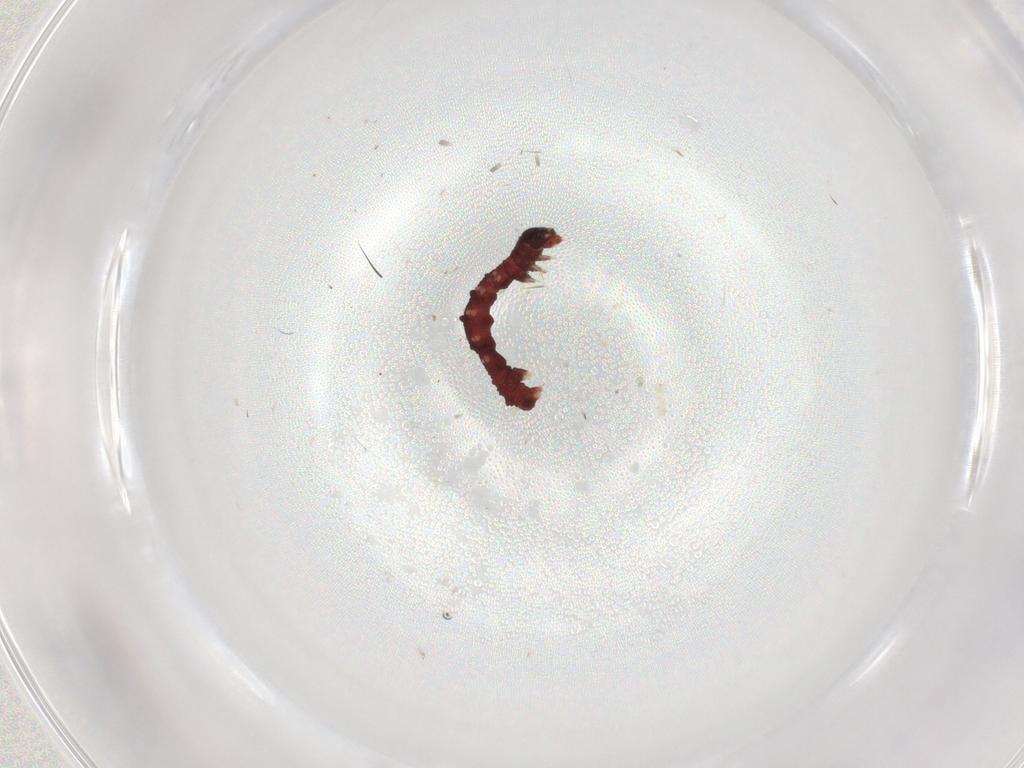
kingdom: Animalia
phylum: Arthropoda
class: Insecta
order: Lepidoptera
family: Geometridae
